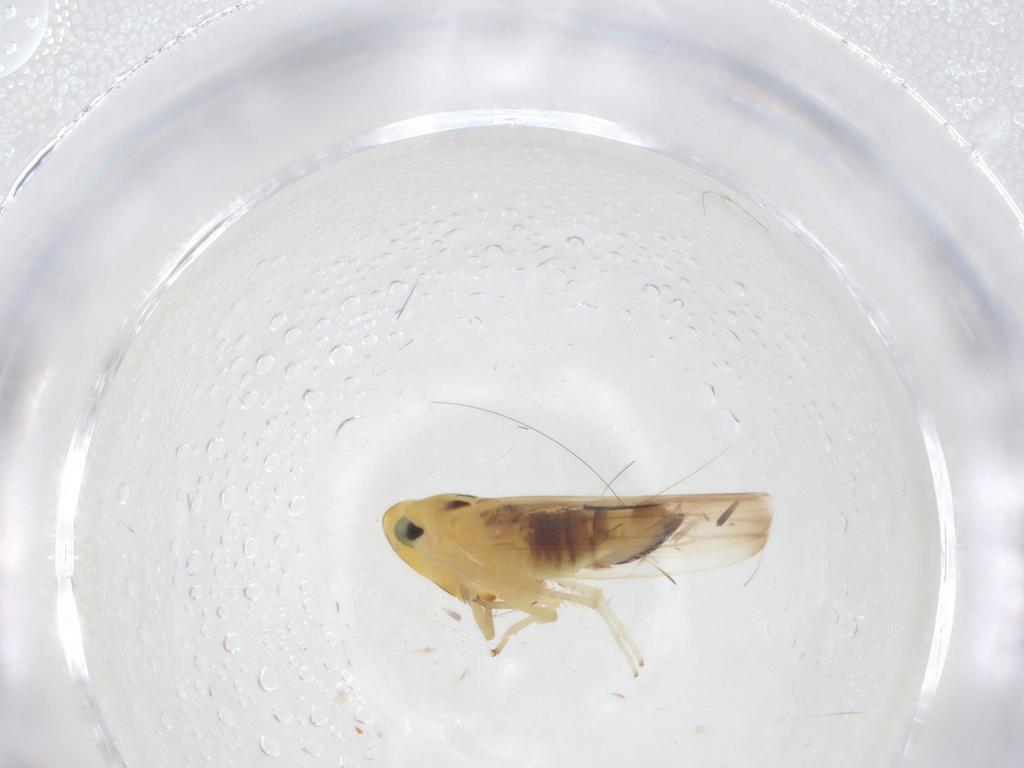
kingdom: Animalia
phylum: Arthropoda
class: Insecta
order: Hemiptera
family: Cicadellidae
